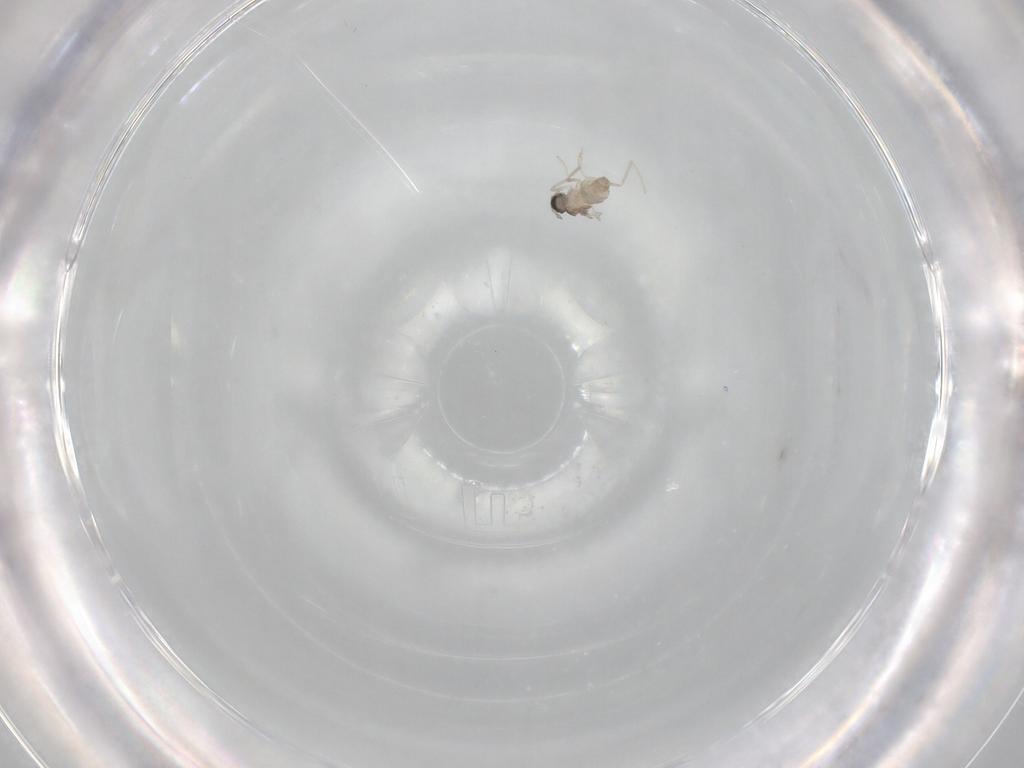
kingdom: Animalia
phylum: Arthropoda
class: Insecta
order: Diptera
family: Cecidomyiidae
